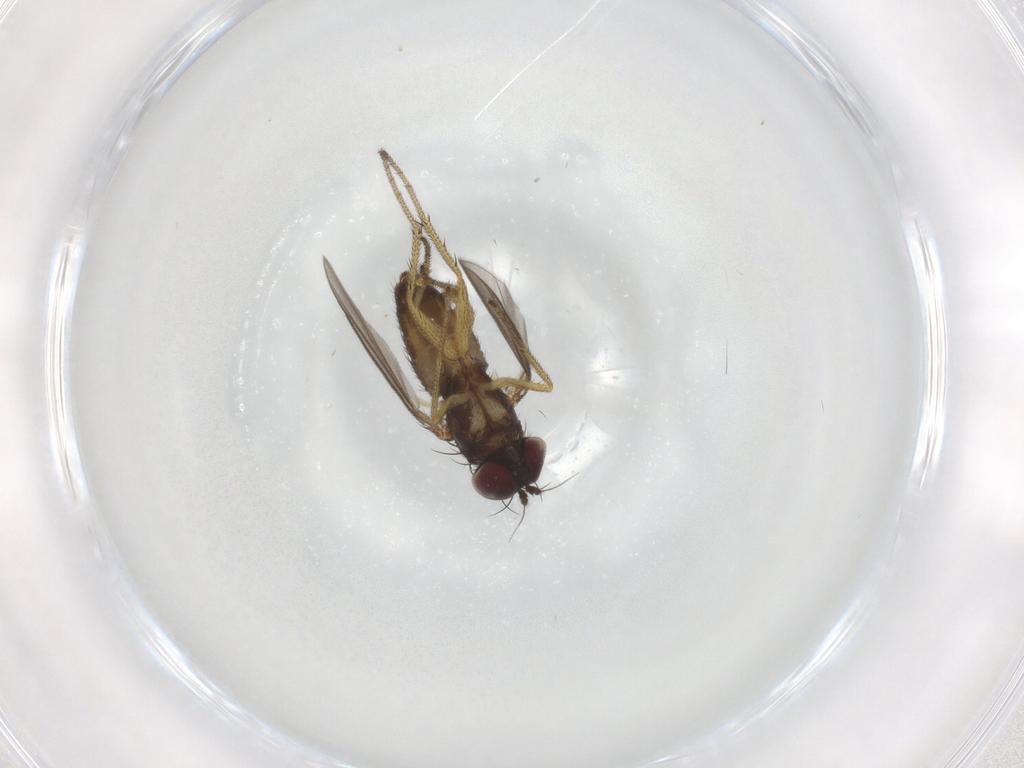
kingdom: Animalia
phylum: Arthropoda
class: Insecta
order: Diptera
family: Dolichopodidae
